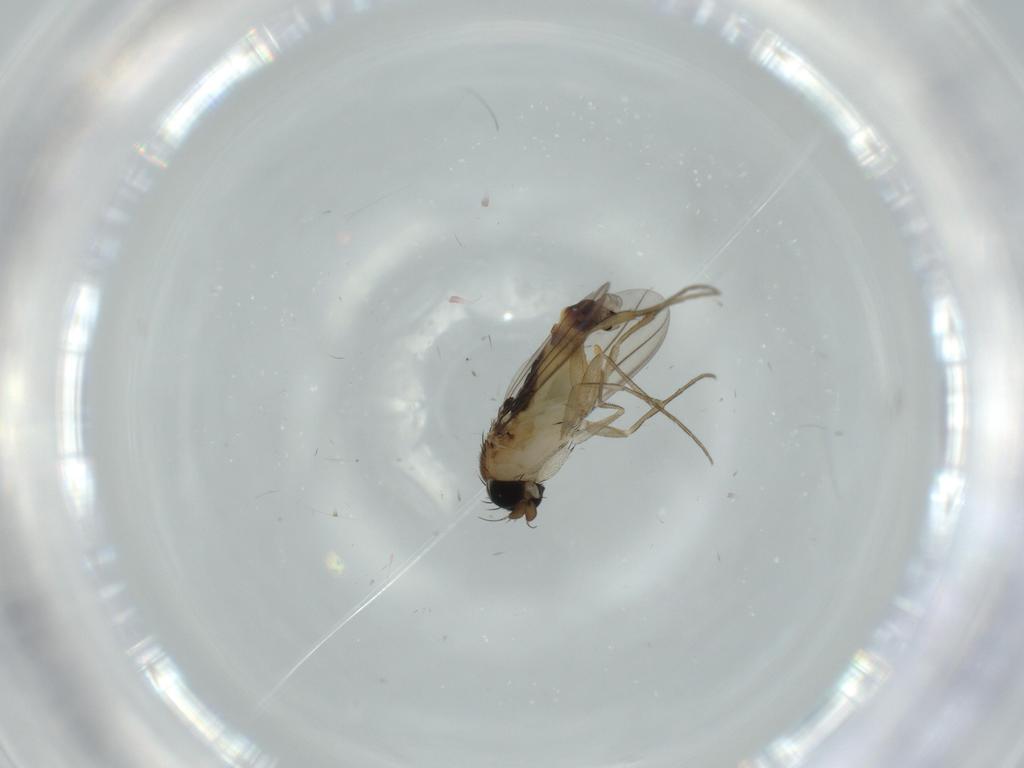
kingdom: Animalia
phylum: Arthropoda
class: Insecta
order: Diptera
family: Phoridae
